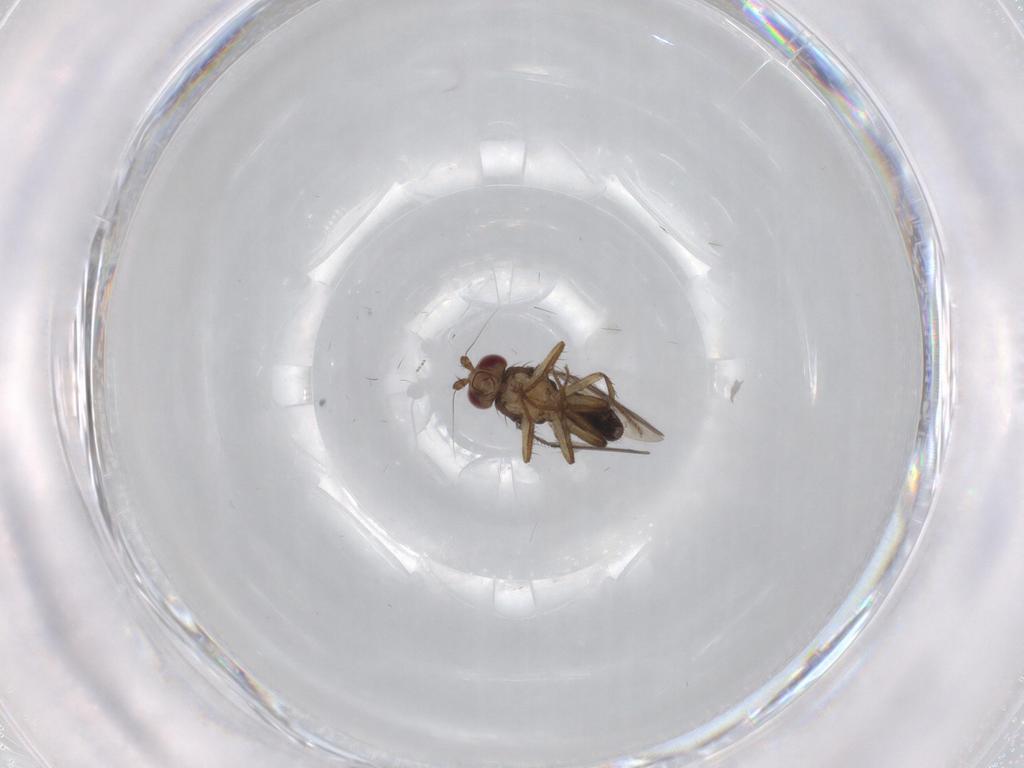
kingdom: Animalia
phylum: Arthropoda
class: Insecta
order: Diptera
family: Sphaeroceridae
